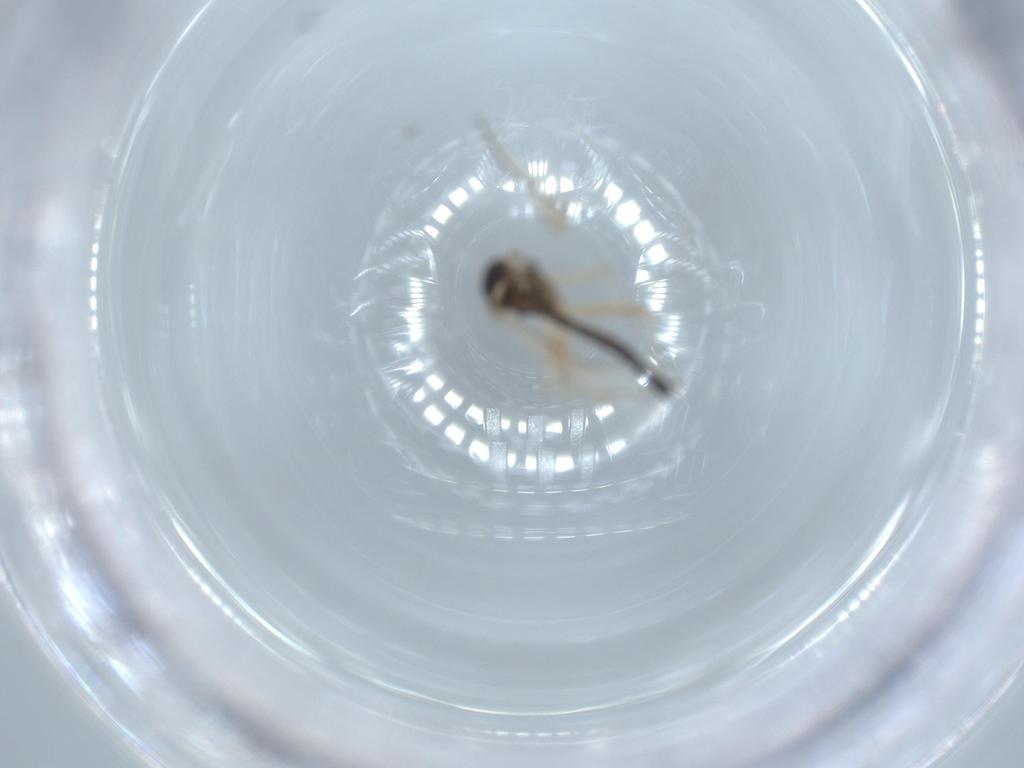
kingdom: Animalia
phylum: Arthropoda
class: Insecta
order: Diptera
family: Chironomidae
